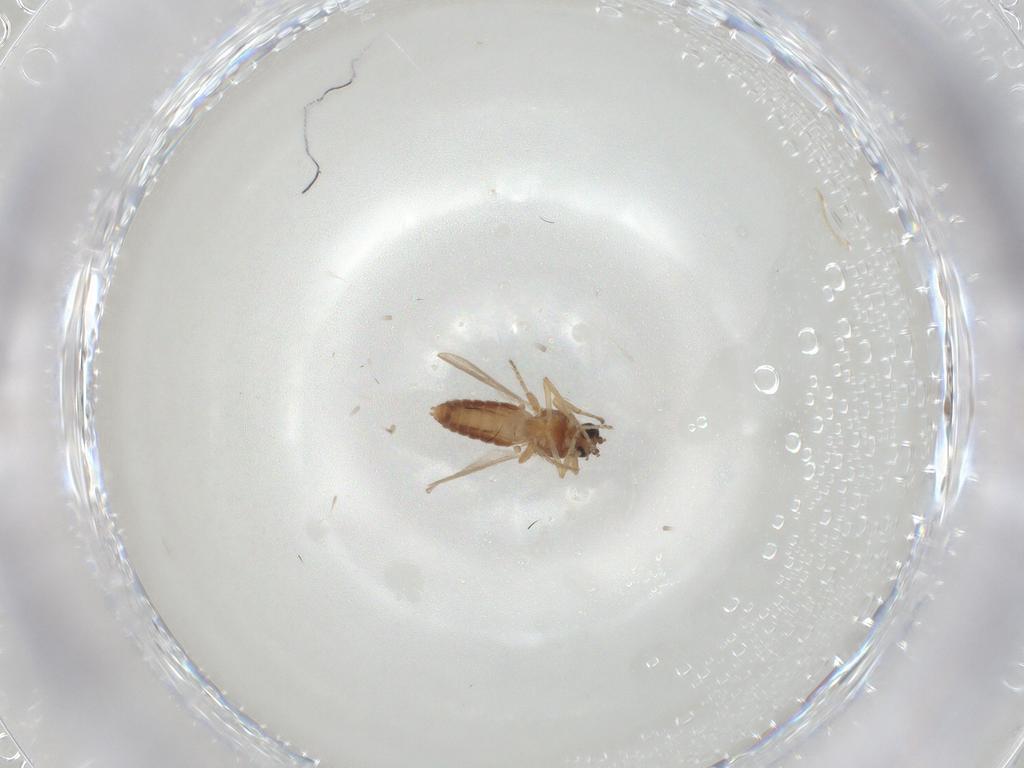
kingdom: Animalia
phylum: Arthropoda
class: Insecta
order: Diptera
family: Ceratopogonidae
